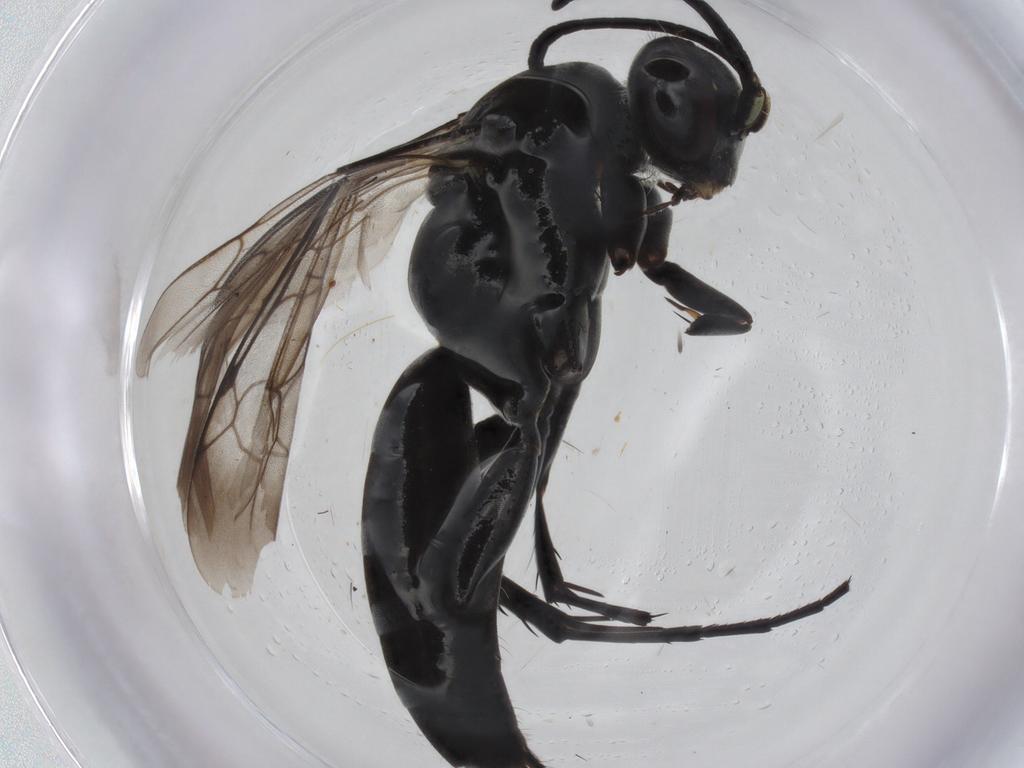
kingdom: Animalia
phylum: Arthropoda
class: Insecta
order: Hymenoptera
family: Pompilidae
